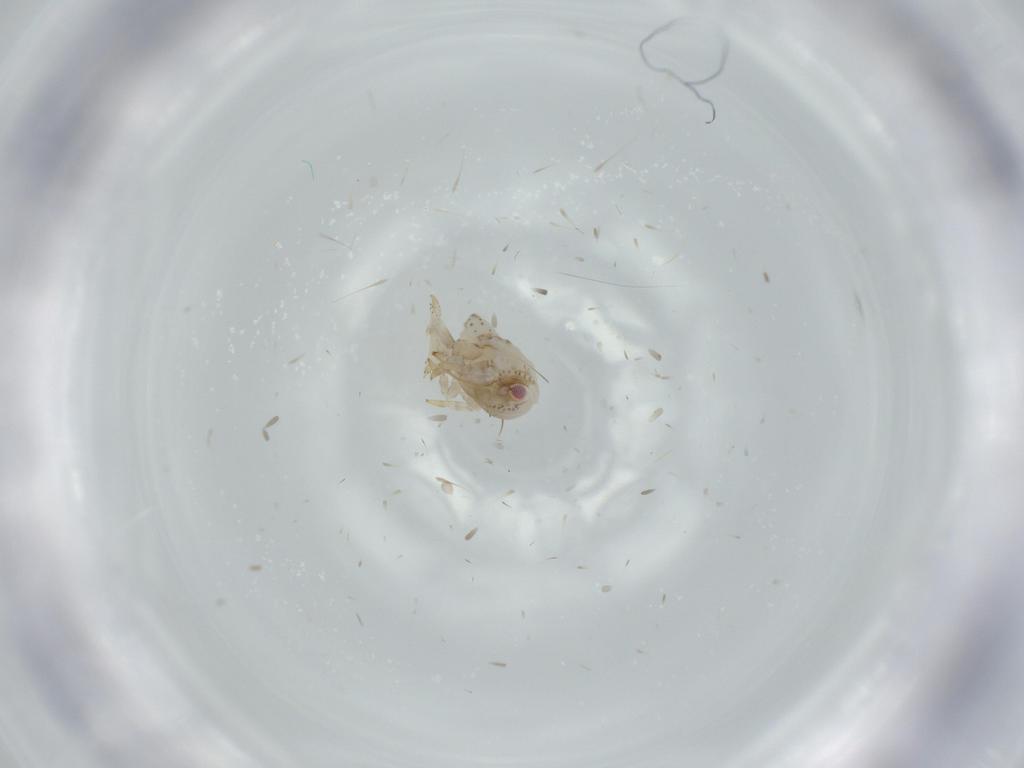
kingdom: Animalia
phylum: Arthropoda
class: Insecta
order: Hemiptera
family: Acanaloniidae
